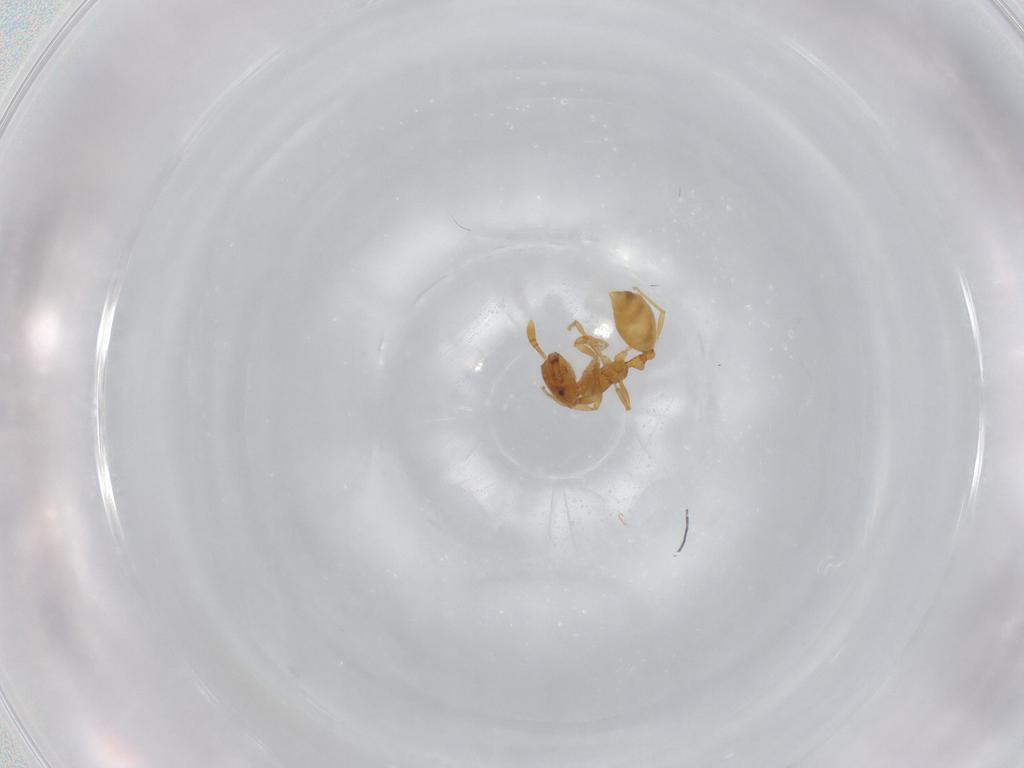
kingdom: Animalia
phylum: Arthropoda
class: Insecta
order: Hymenoptera
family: Formicidae
